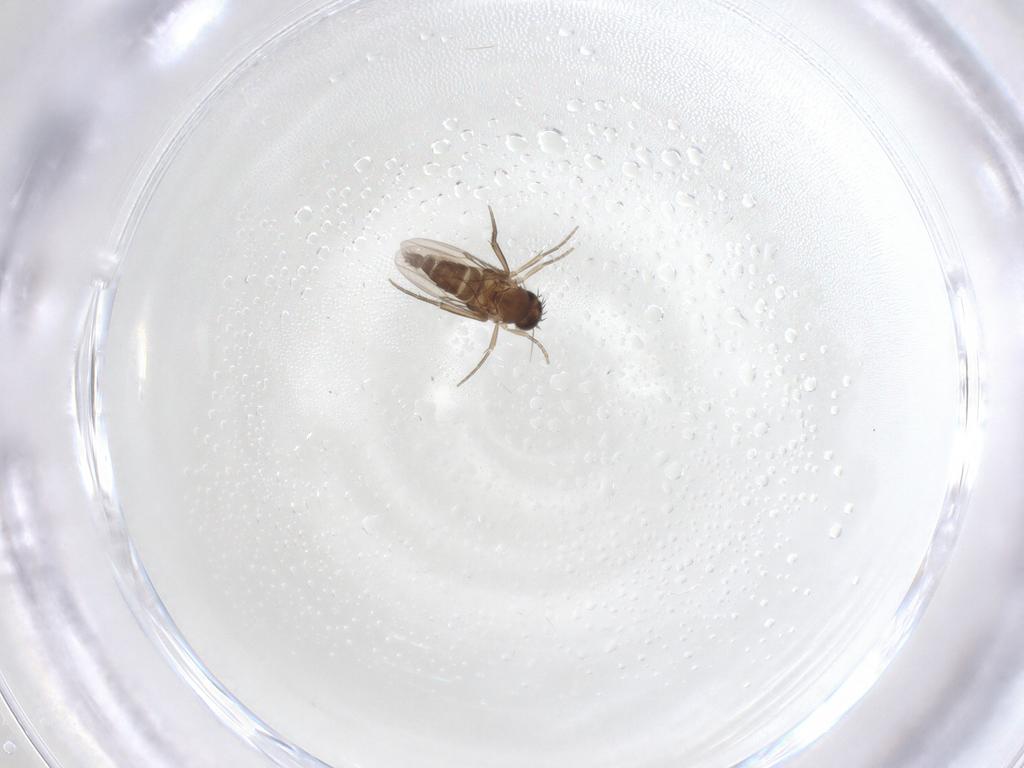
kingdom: Animalia
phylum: Arthropoda
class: Insecta
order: Diptera
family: Phoridae
